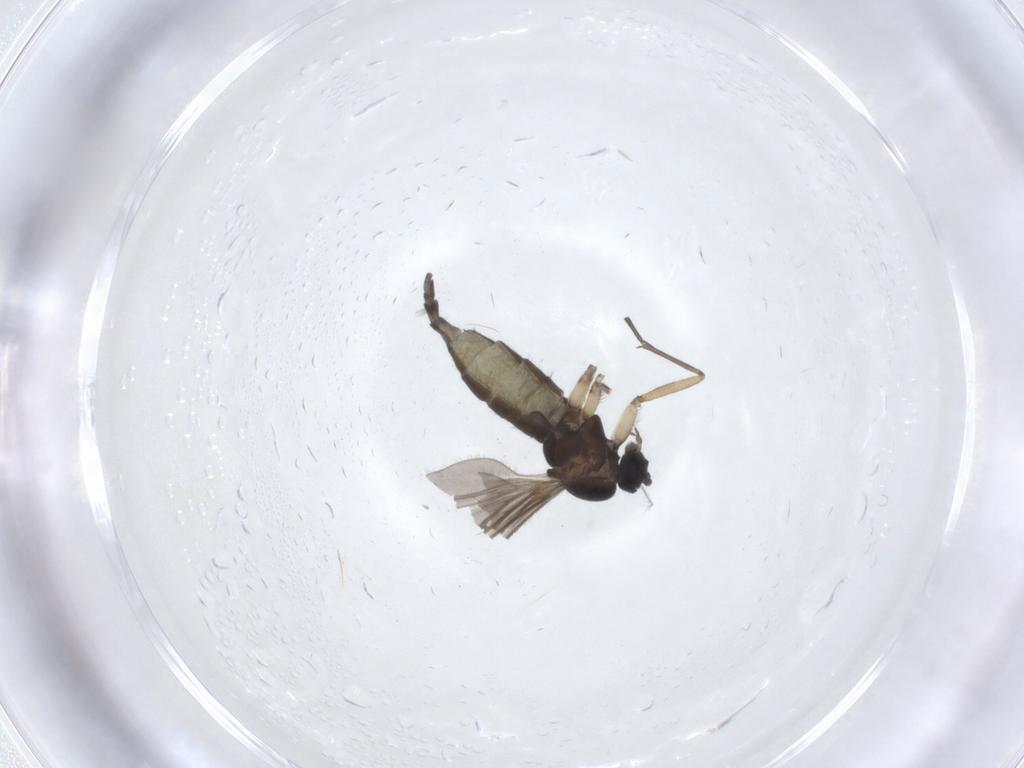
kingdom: Animalia
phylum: Arthropoda
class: Insecta
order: Diptera
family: Sciaridae
